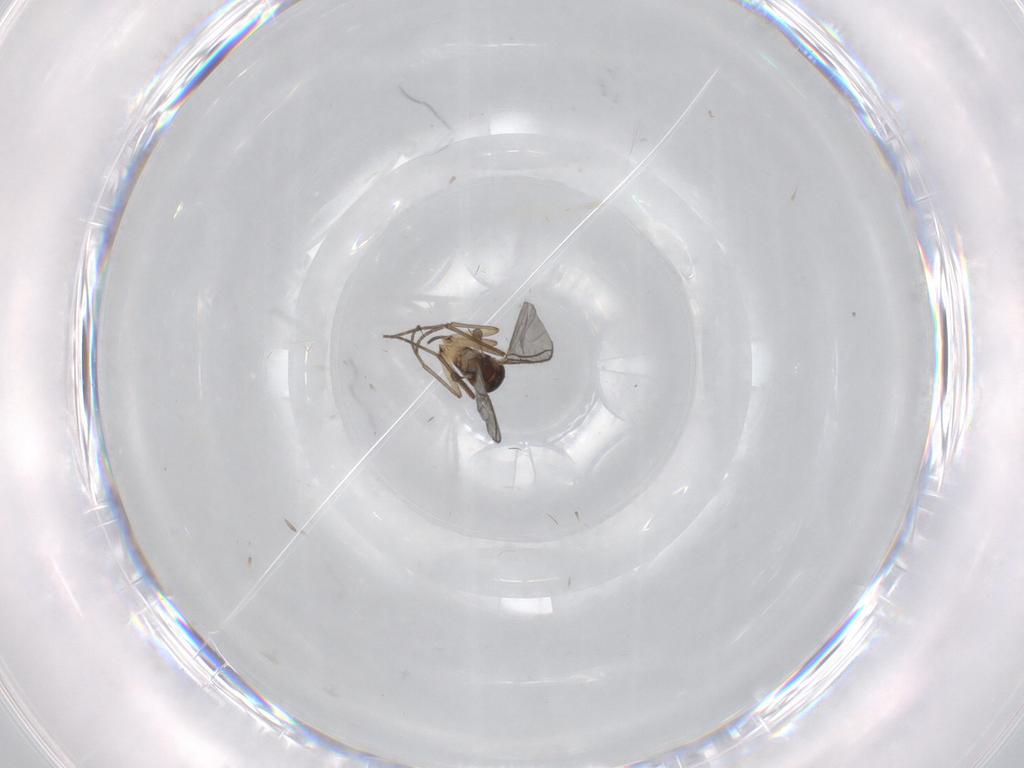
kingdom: Animalia
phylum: Arthropoda
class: Insecta
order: Diptera
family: Sciaridae
